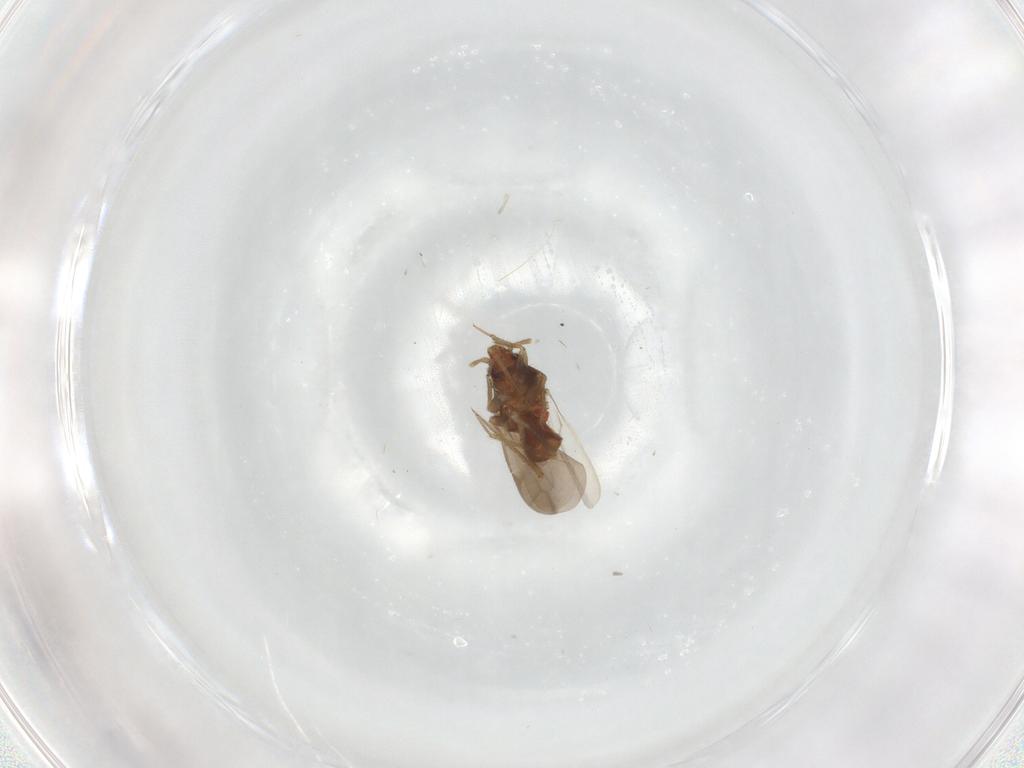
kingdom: Animalia
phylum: Arthropoda
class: Insecta
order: Hemiptera
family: Ceratocombidae
